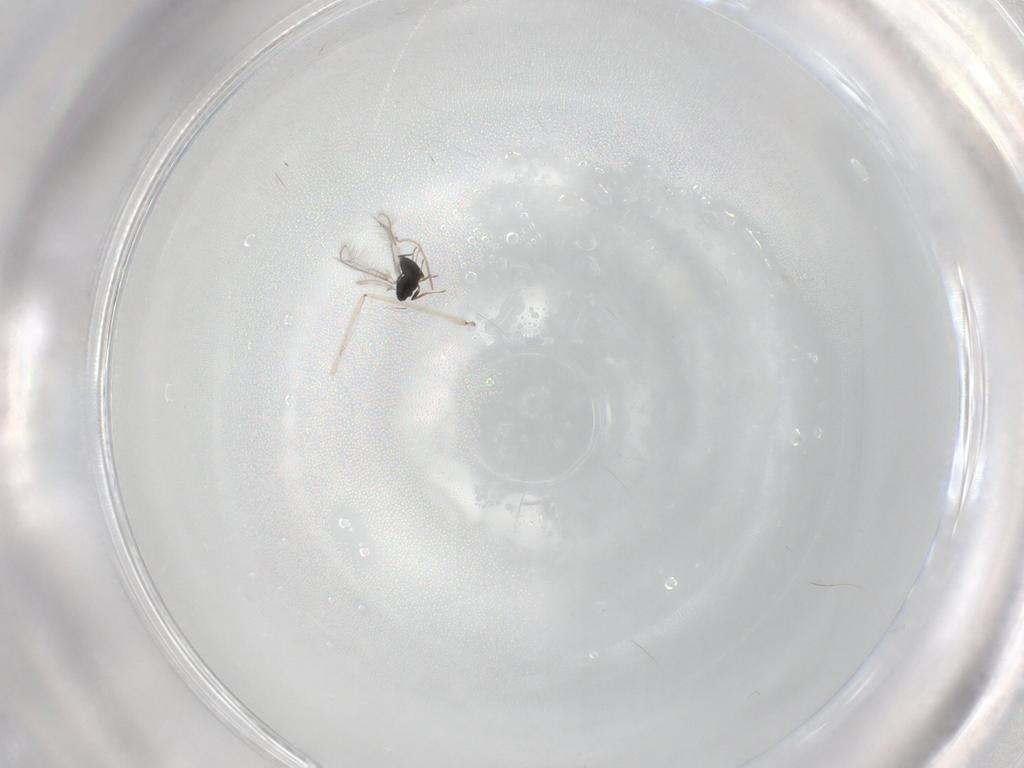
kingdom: Animalia
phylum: Arthropoda
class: Insecta
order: Hymenoptera
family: Mymaridae
